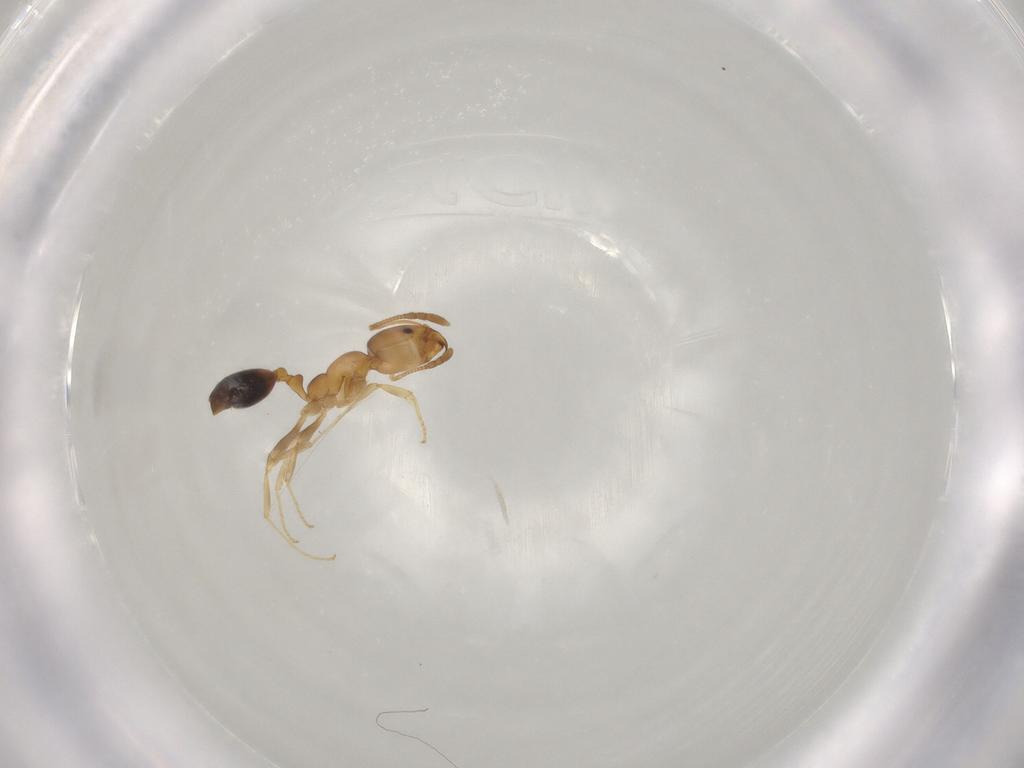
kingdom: Animalia
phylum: Arthropoda
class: Insecta
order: Hymenoptera
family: Formicidae
